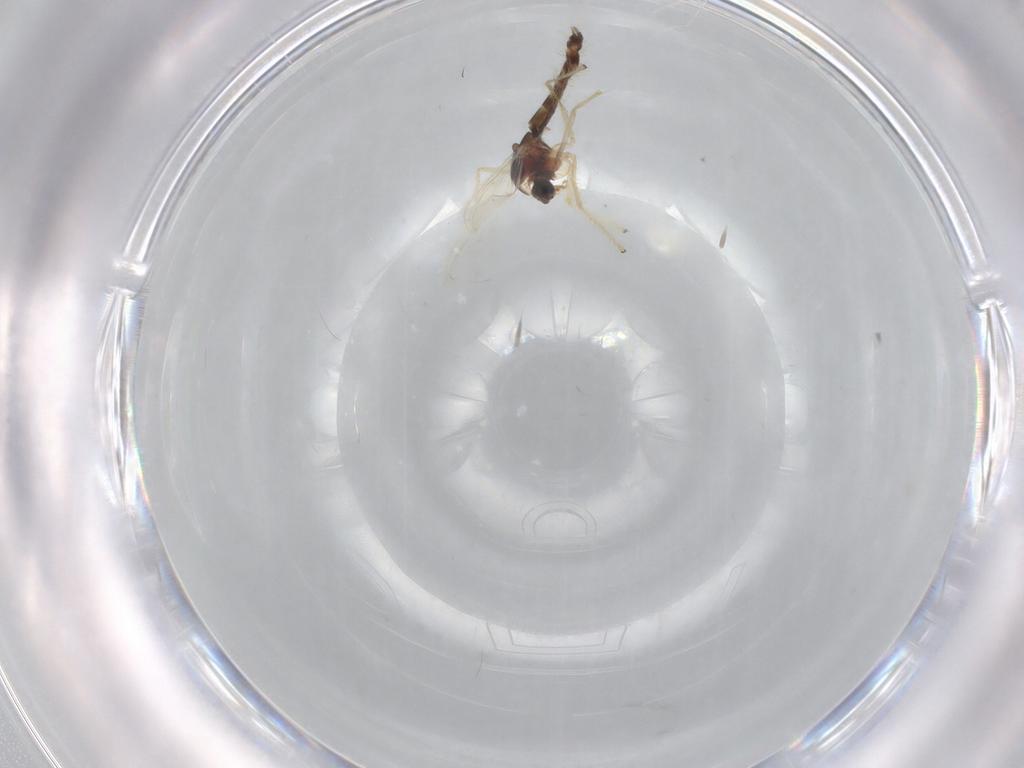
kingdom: Animalia
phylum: Arthropoda
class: Insecta
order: Diptera
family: Chironomidae
